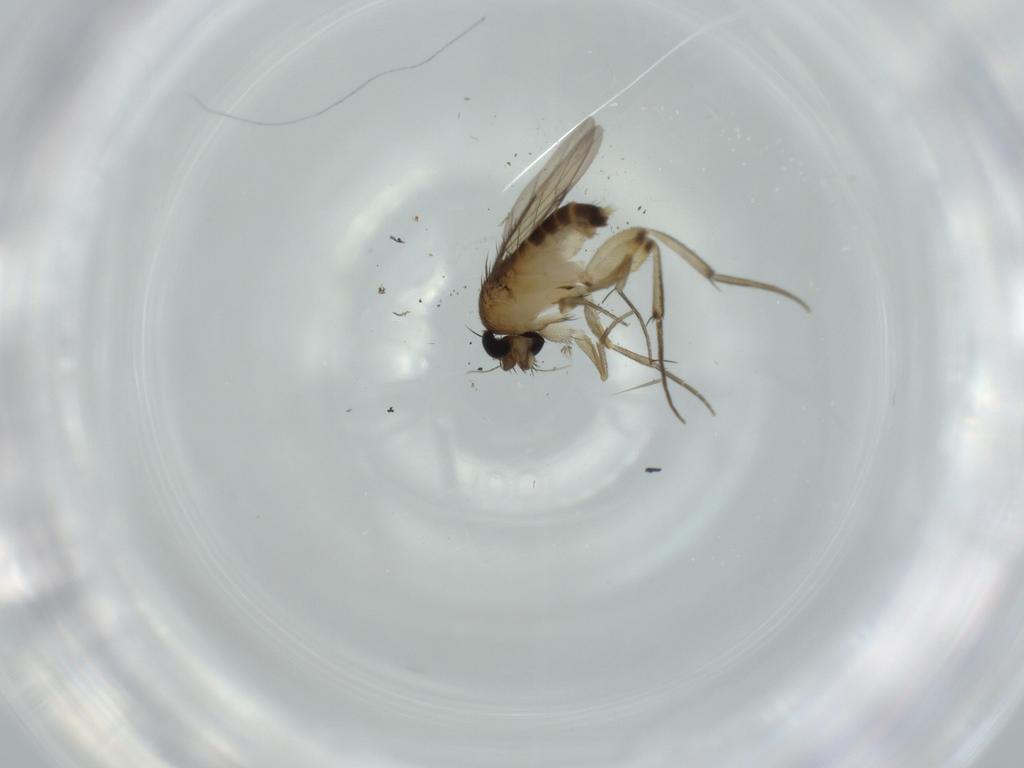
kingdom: Animalia
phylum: Arthropoda
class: Insecta
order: Diptera
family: Phoridae
